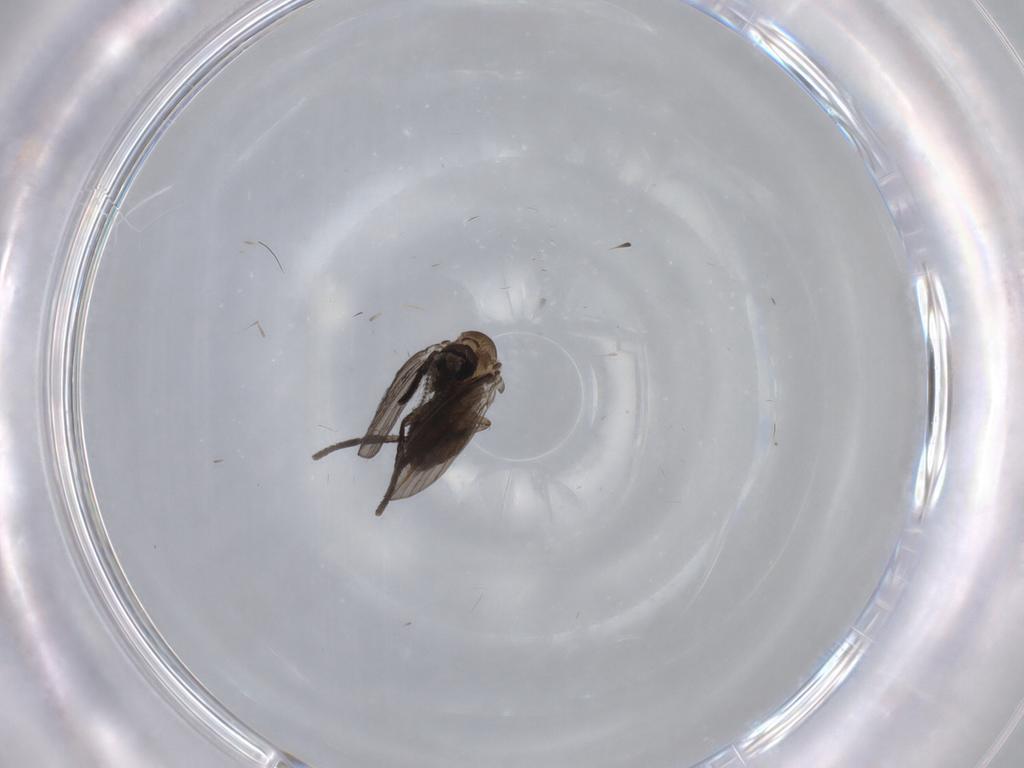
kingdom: Animalia
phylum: Arthropoda
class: Insecta
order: Diptera
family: Psychodidae
